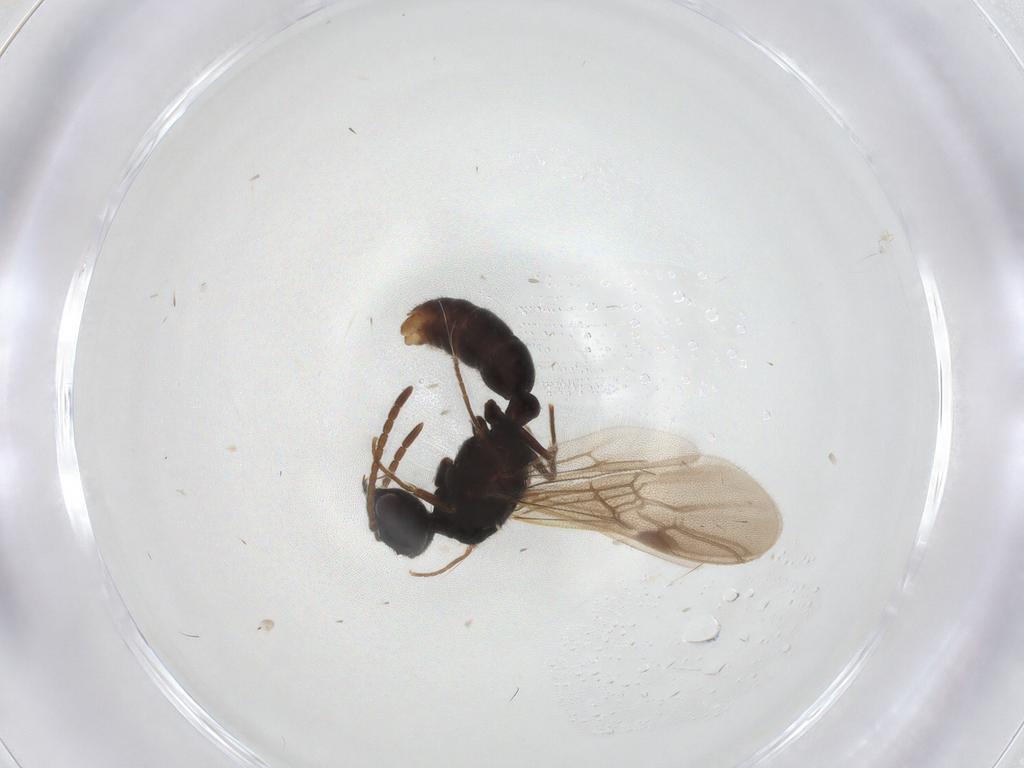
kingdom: Animalia
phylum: Arthropoda
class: Insecta
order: Hymenoptera
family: Formicidae
